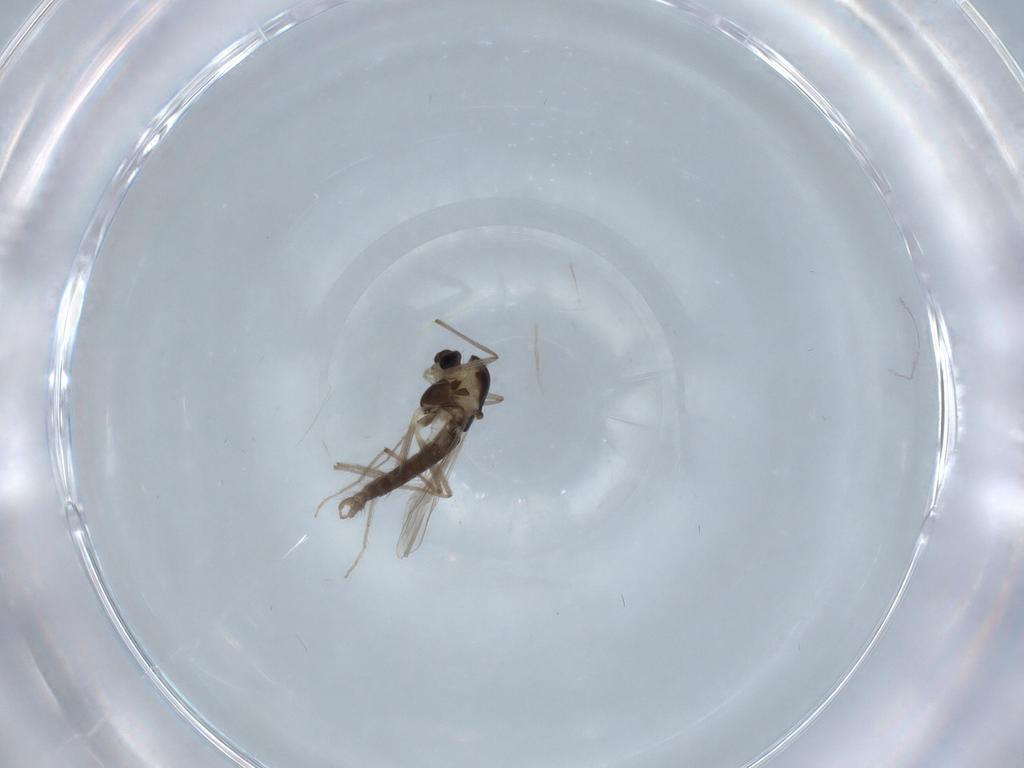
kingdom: Animalia
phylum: Arthropoda
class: Insecta
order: Diptera
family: Chironomidae
